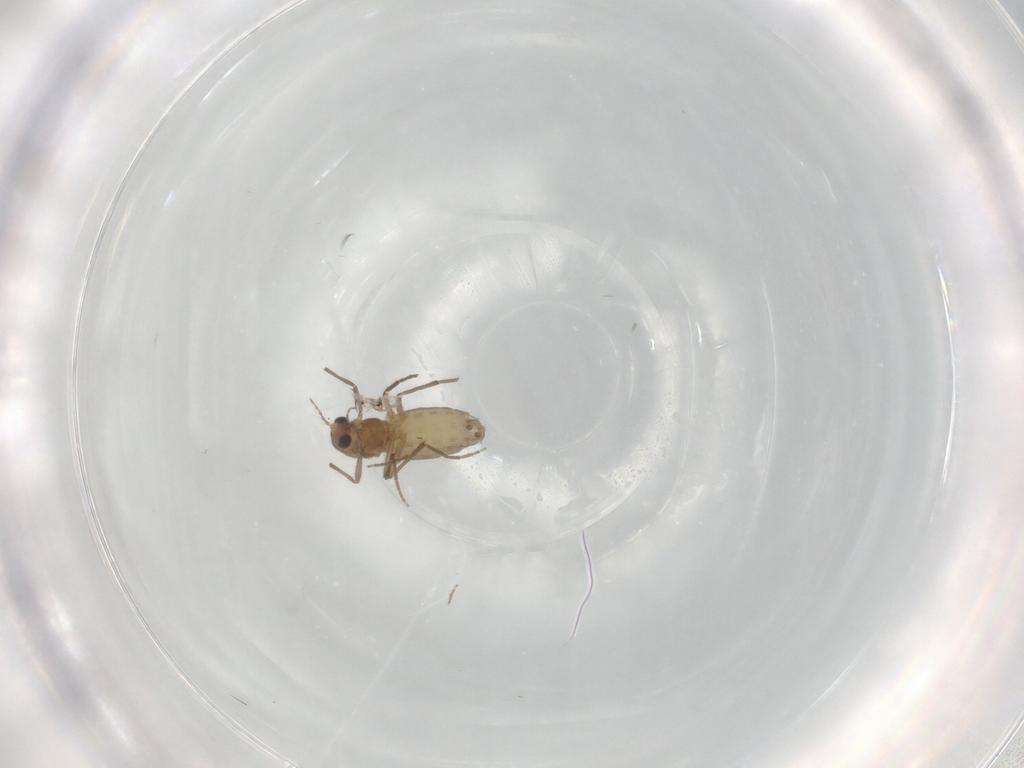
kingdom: Animalia
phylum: Arthropoda
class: Insecta
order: Diptera
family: Chironomidae
